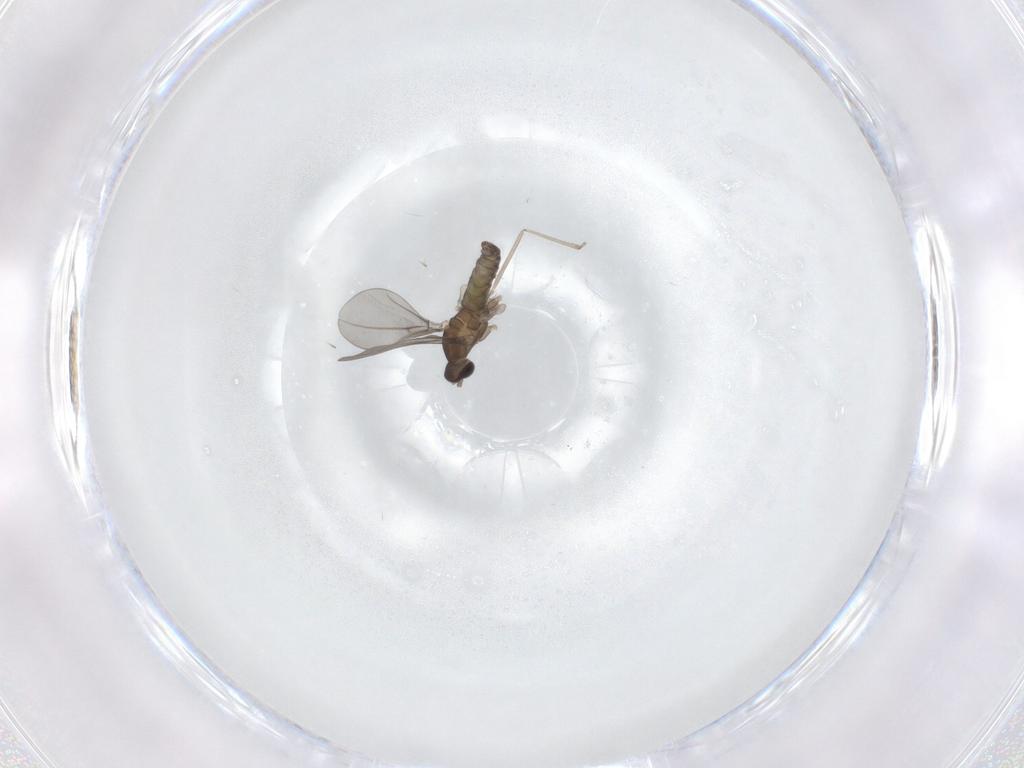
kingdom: Animalia
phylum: Arthropoda
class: Insecta
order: Diptera
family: Cecidomyiidae
